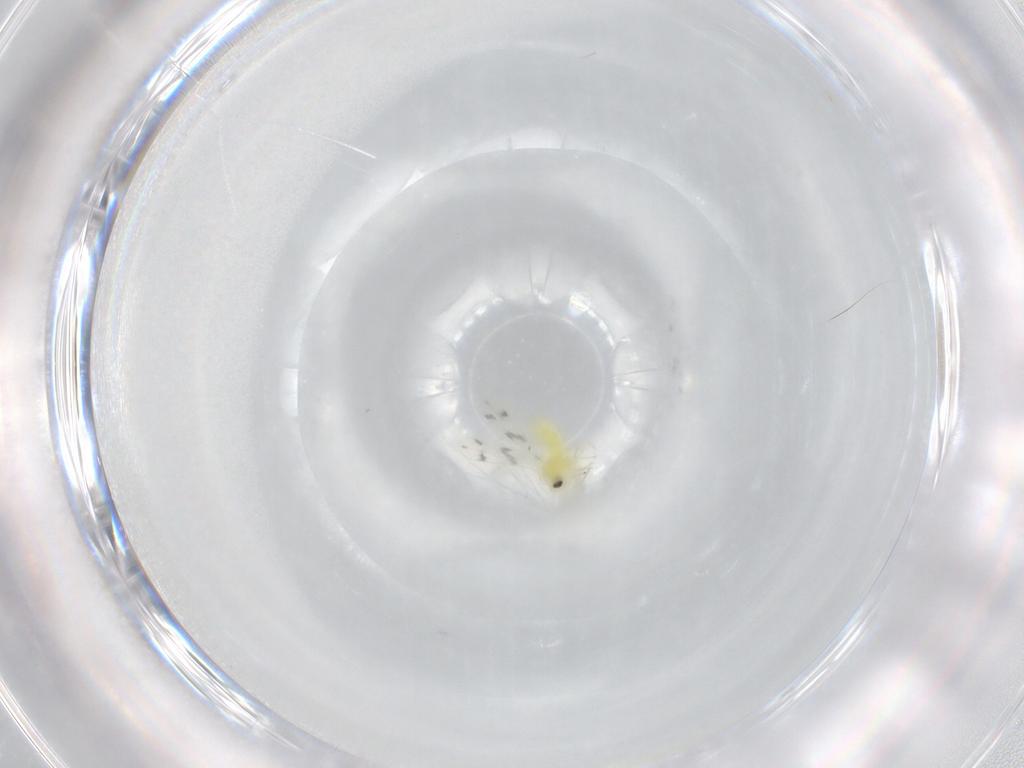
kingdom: Animalia
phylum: Arthropoda
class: Insecta
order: Hemiptera
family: Aleyrodidae
